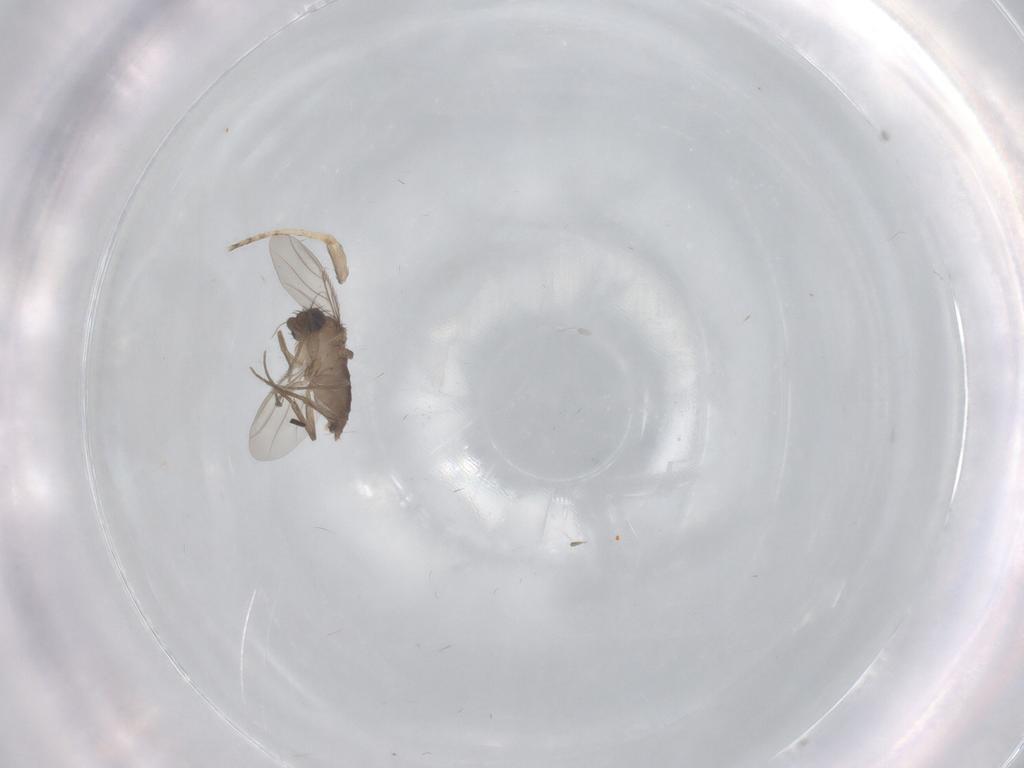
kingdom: Animalia
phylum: Arthropoda
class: Insecta
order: Diptera
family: Phoridae
